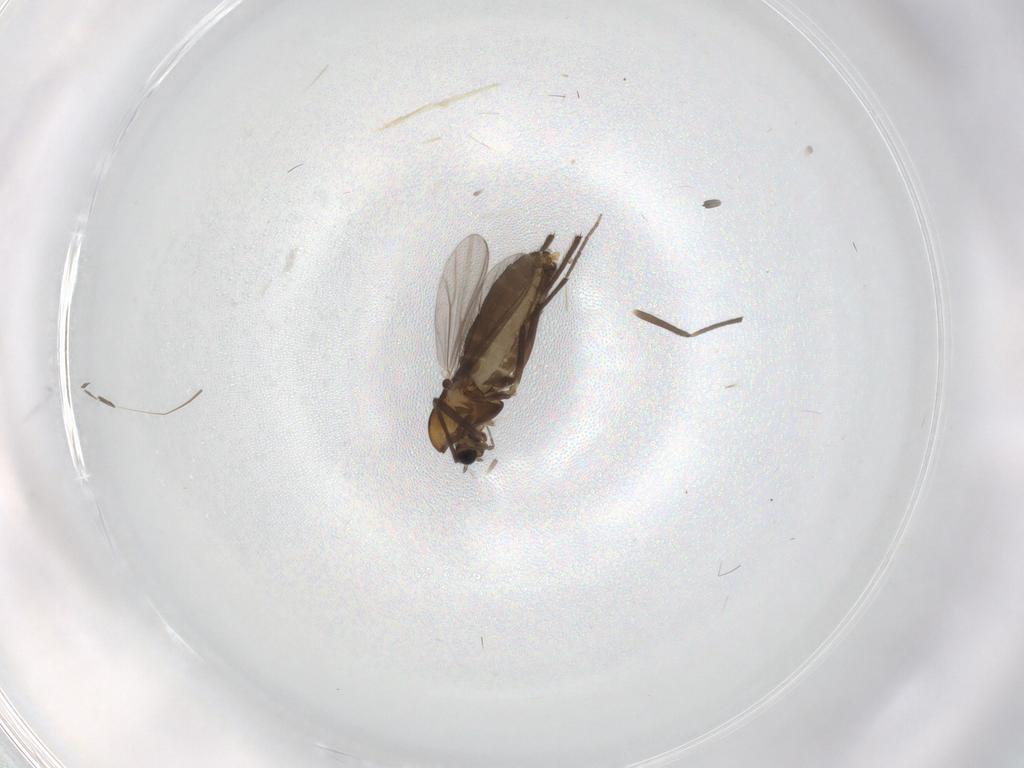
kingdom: Animalia
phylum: Arthropoda
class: Insecta
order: Diptera
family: Chironomidae
